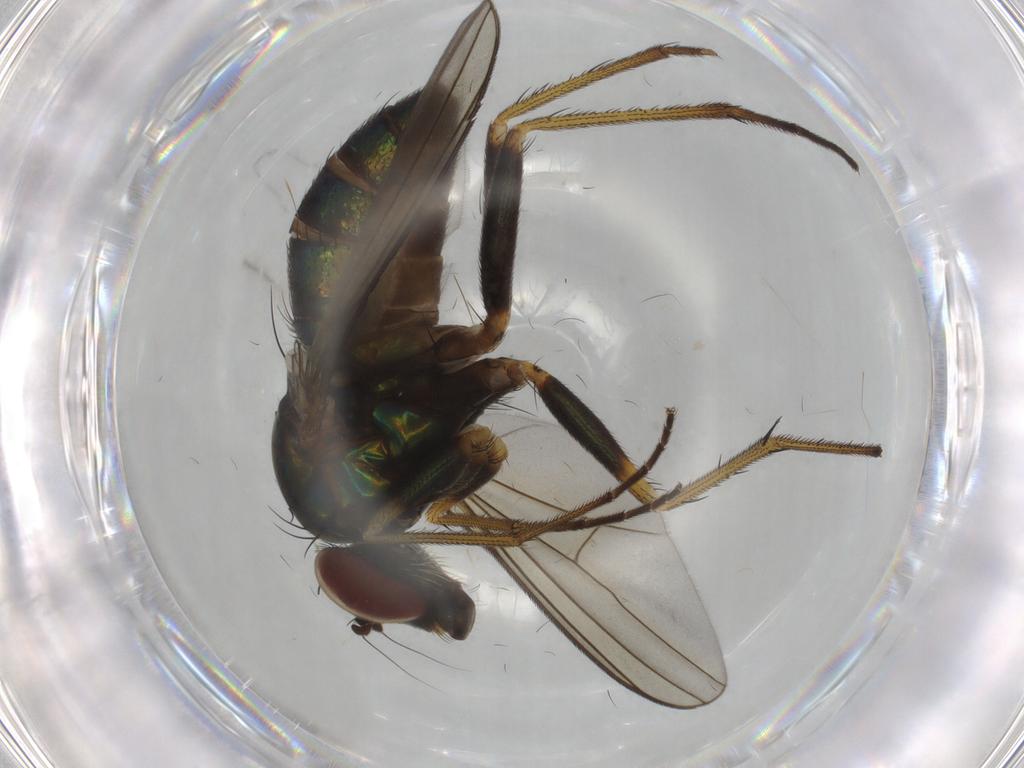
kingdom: Animalia
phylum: Arthropoda
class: Insecta
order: Diptera
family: Dolichopodidae
